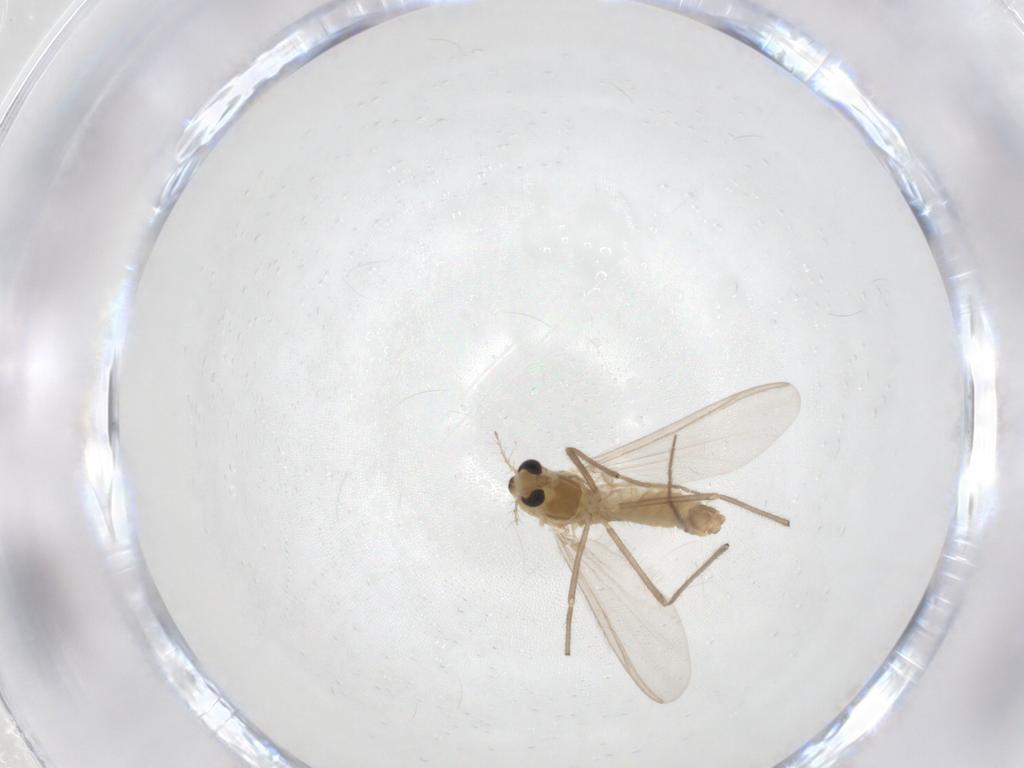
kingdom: Animalia
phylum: Arthropoda
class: Insecta
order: Diptera
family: Chironomidae
